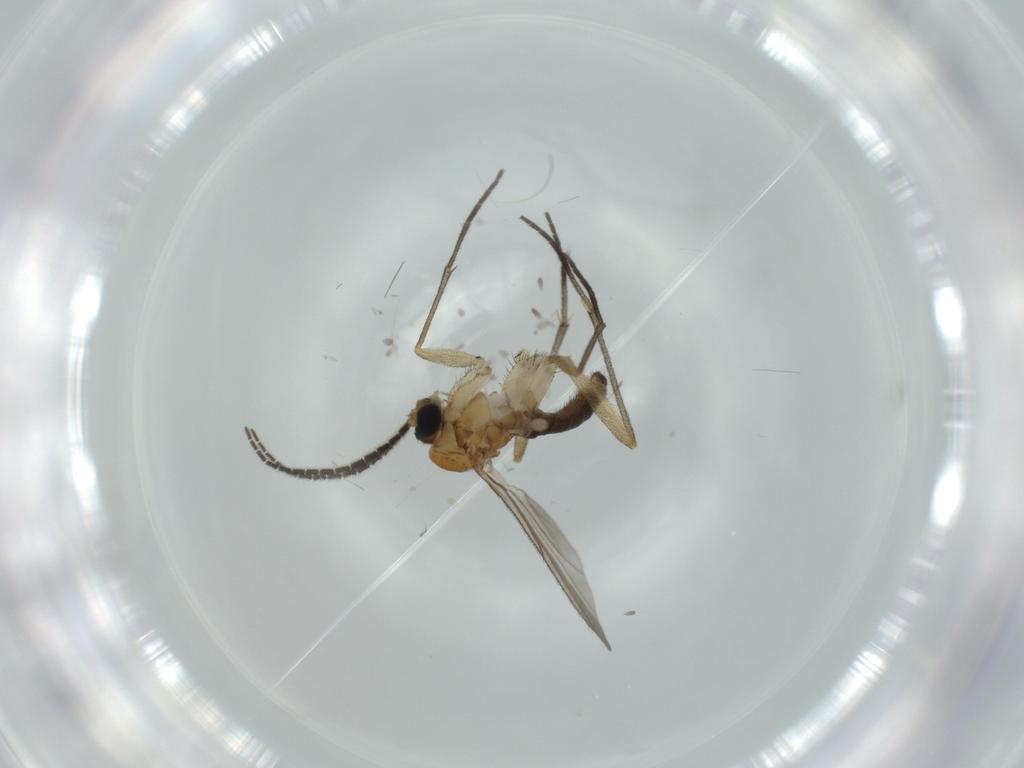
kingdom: Animalia
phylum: Arthropoda
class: Insecta
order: Diptera
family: Sciaridae
